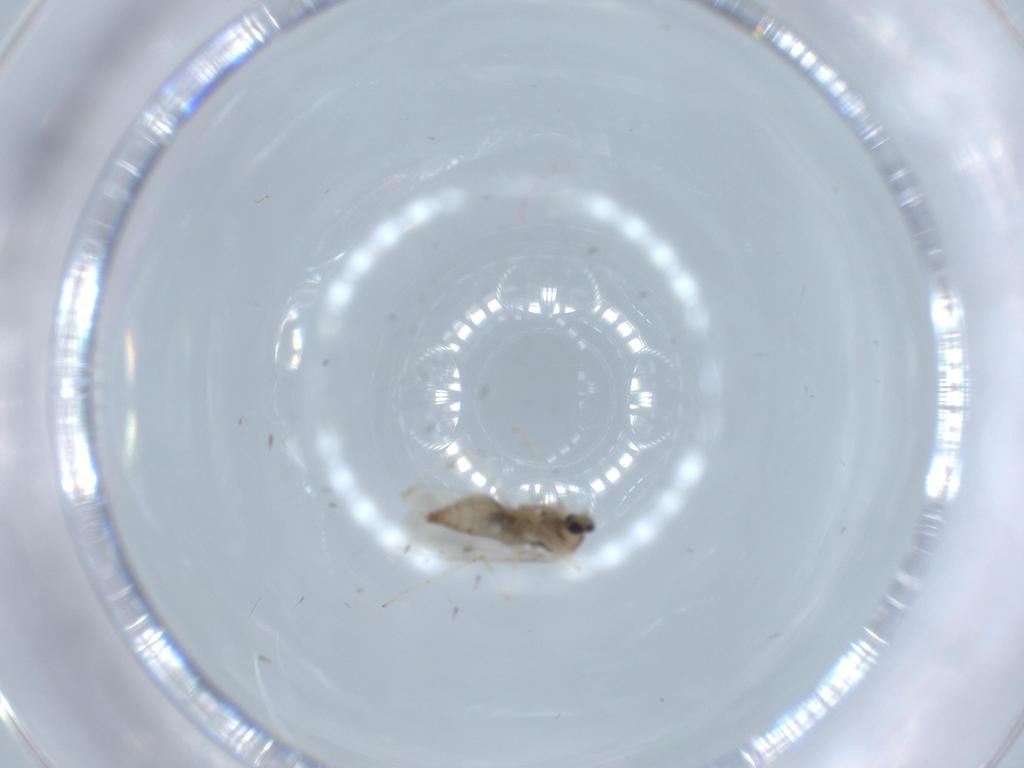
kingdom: Animalia
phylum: Arthropoda
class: Insecta
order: Diptera
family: Cecidomyiidae
